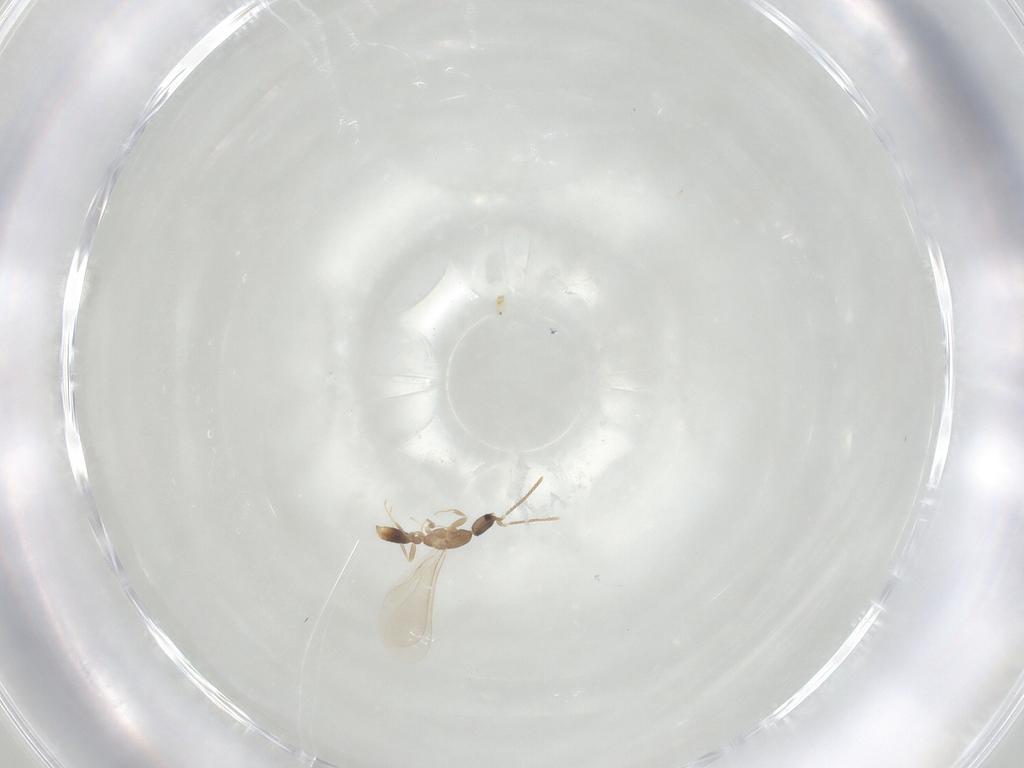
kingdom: Animalia
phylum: Arthropoda
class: Insecta
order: Hymenoptera
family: Formicidae
